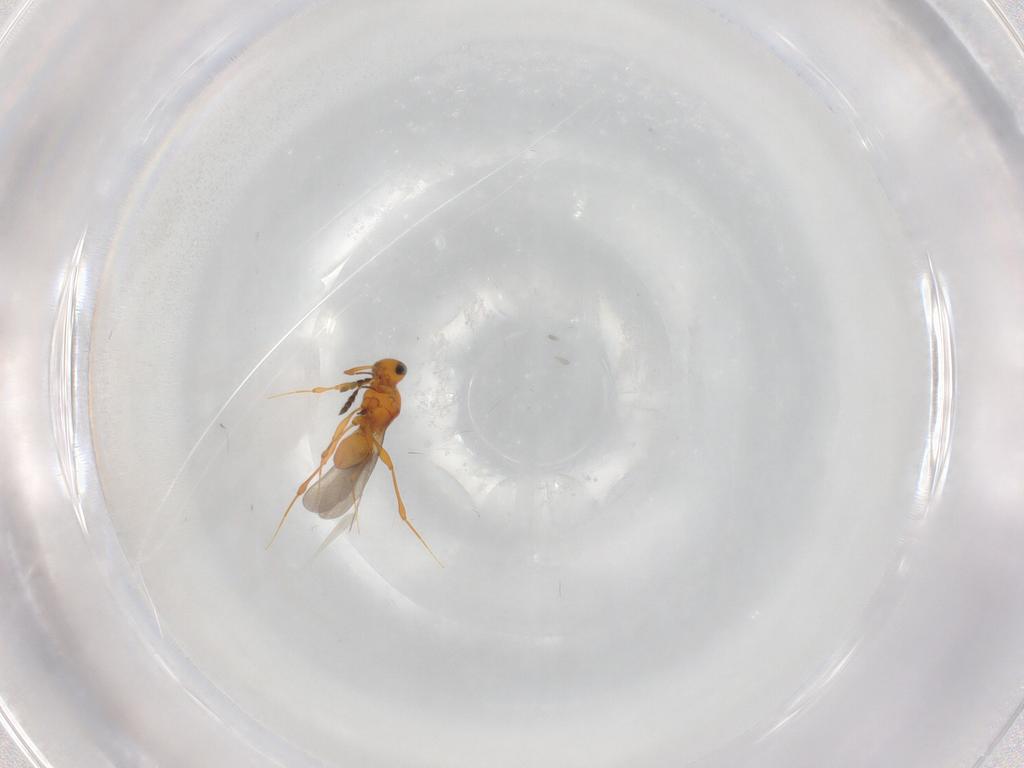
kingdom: Animalia
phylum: Arthropoda
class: Insecta
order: Hymenoptera
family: Platygastridae
